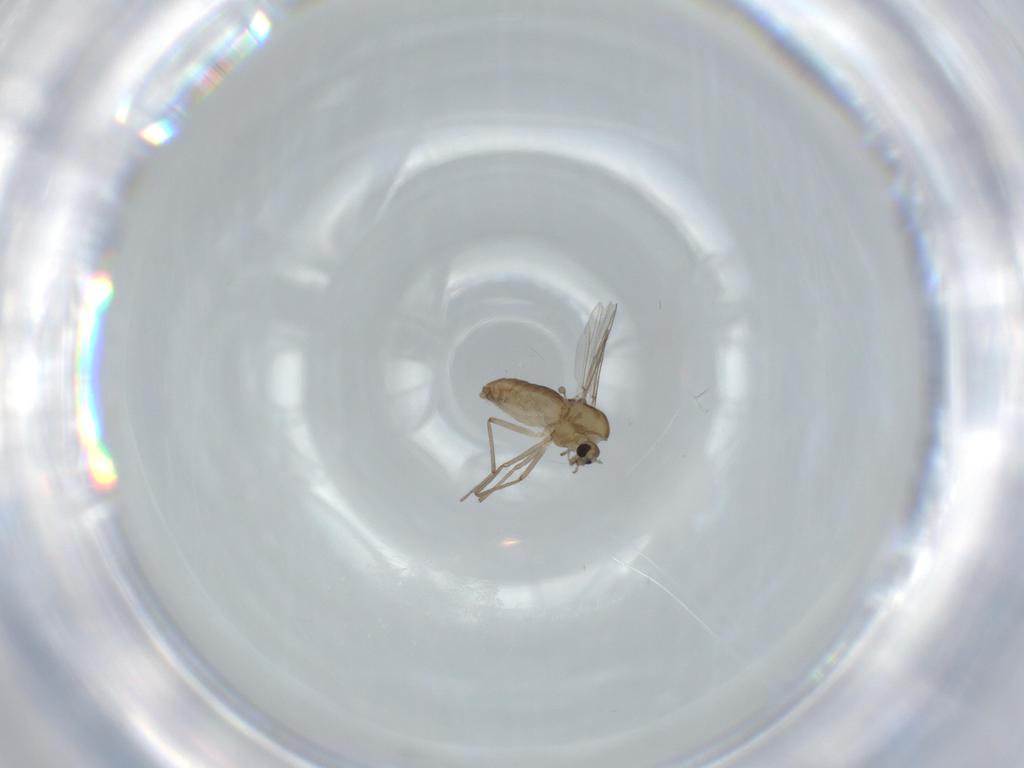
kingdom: Animalia
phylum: Arthropoda
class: Insecta
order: Diptera
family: Chironomidae
